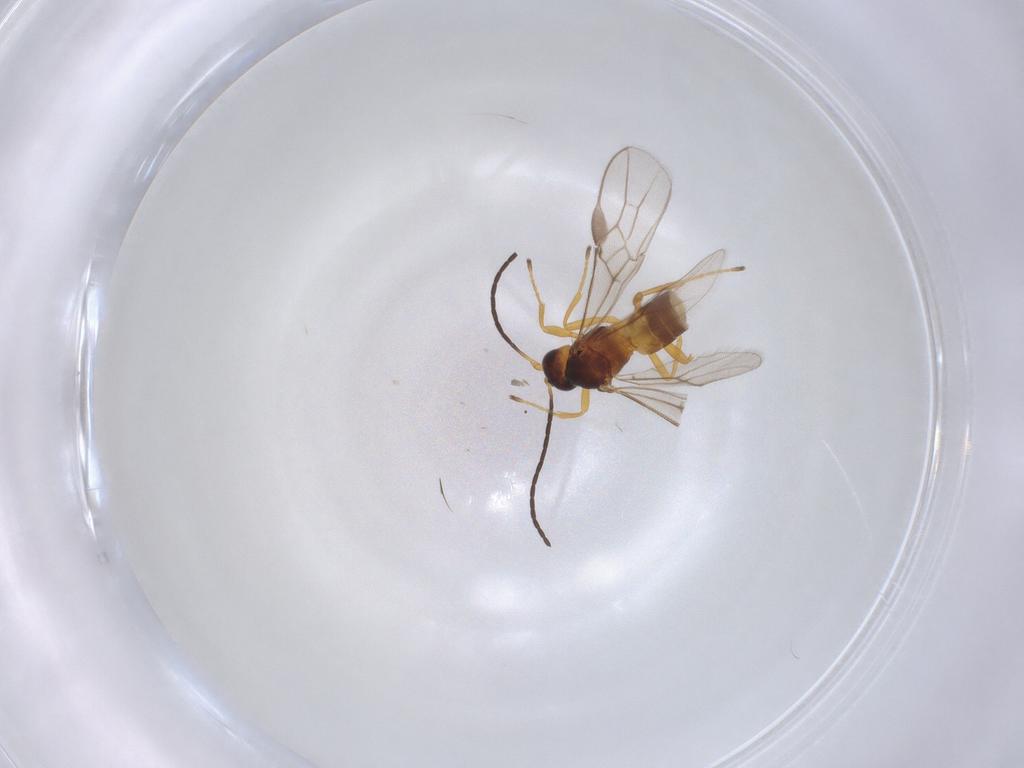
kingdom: Animalia
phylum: Arthropoda
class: Insecta
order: Hymenoptera
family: Braconidae
